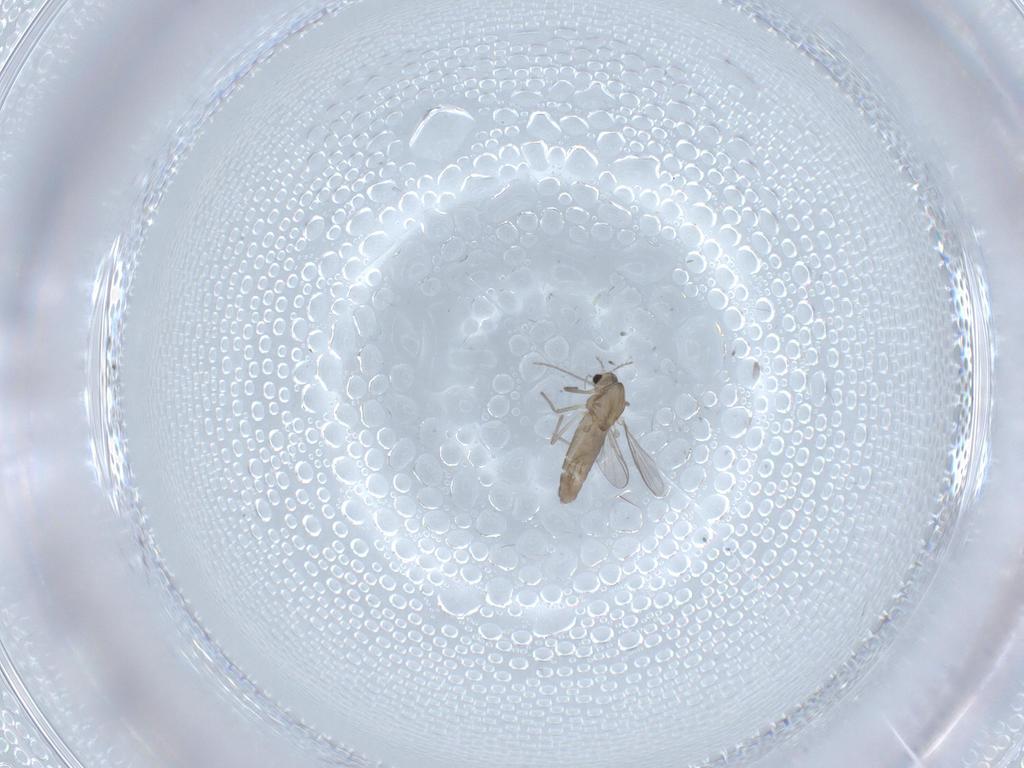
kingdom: Animalia
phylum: Arthropoda
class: Insecta
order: Diptera
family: Chironomidae
